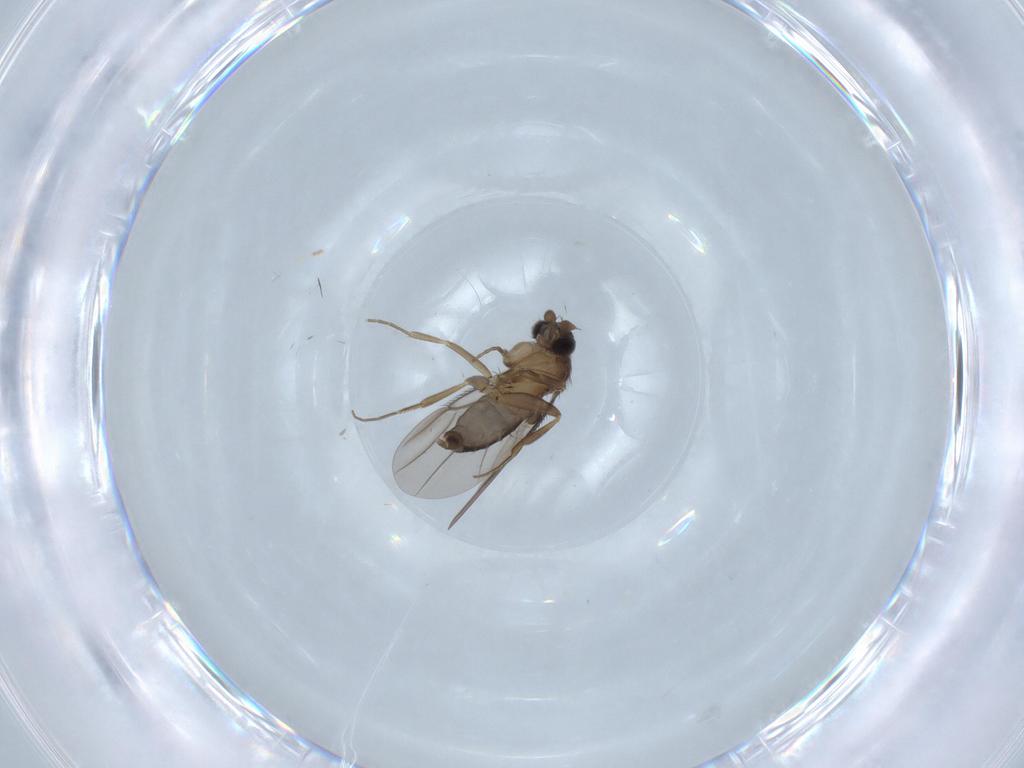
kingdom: Animalia
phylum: Arthropoda
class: Insecta
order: Diptera
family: Phoridae
